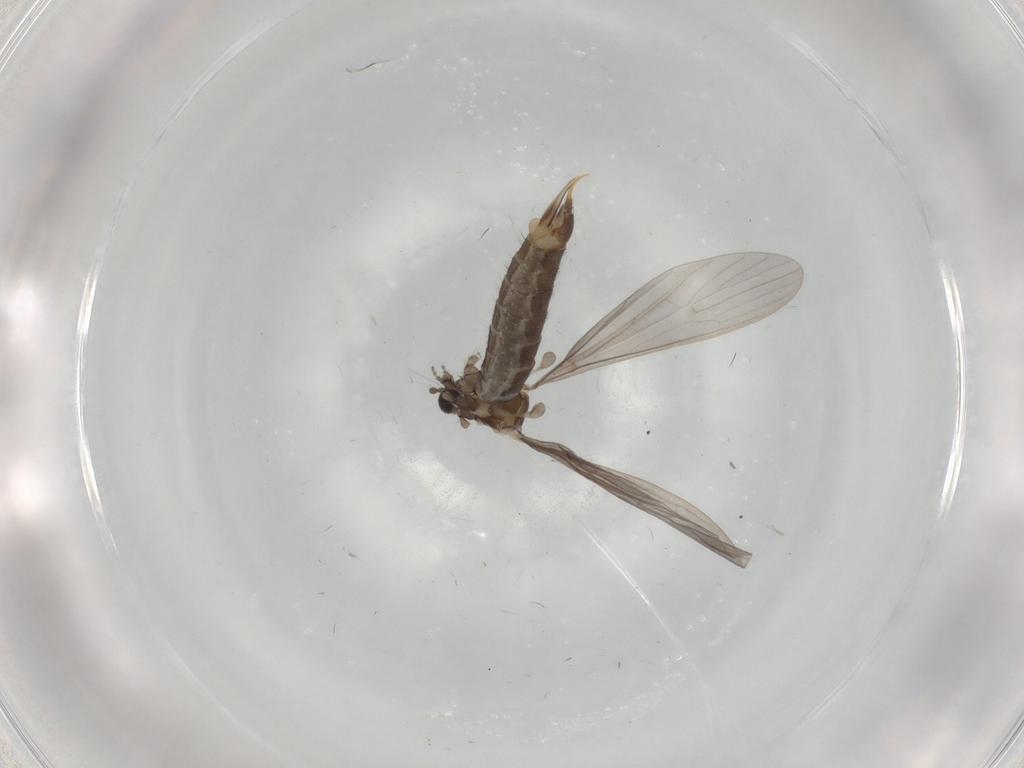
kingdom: Animalia
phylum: Arthropoda
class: Insecta
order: Diptera
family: Limoniidae
